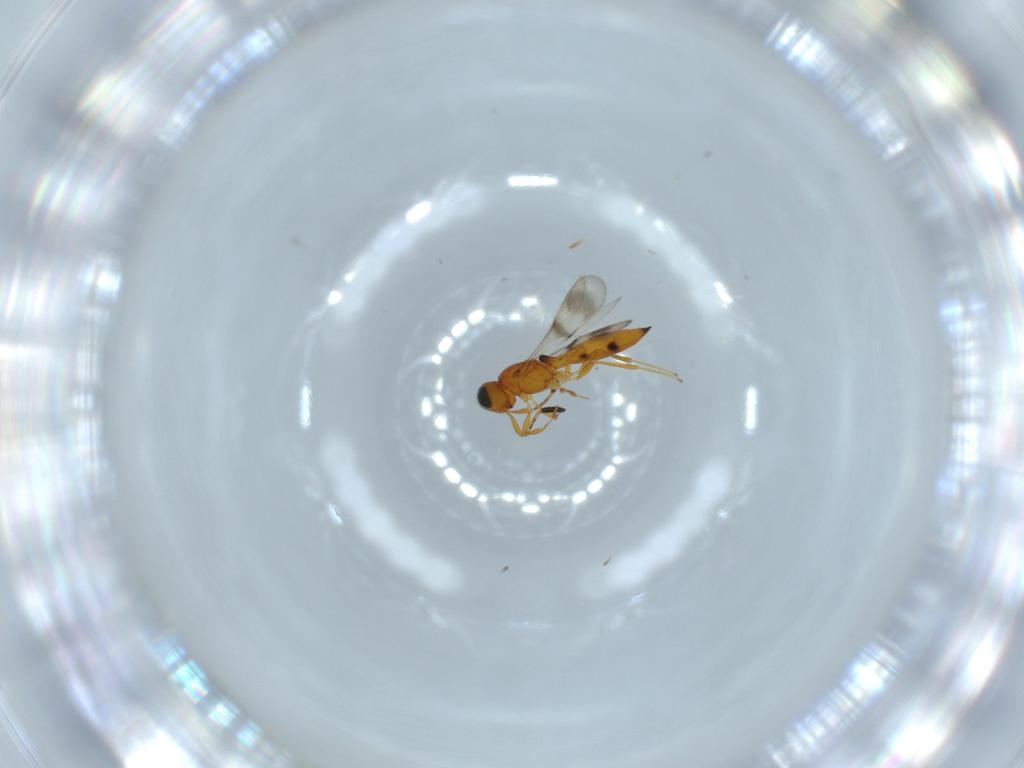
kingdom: Animalia
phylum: Arthropoda
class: Insecta
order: Hymenoptera
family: Scelionidae
